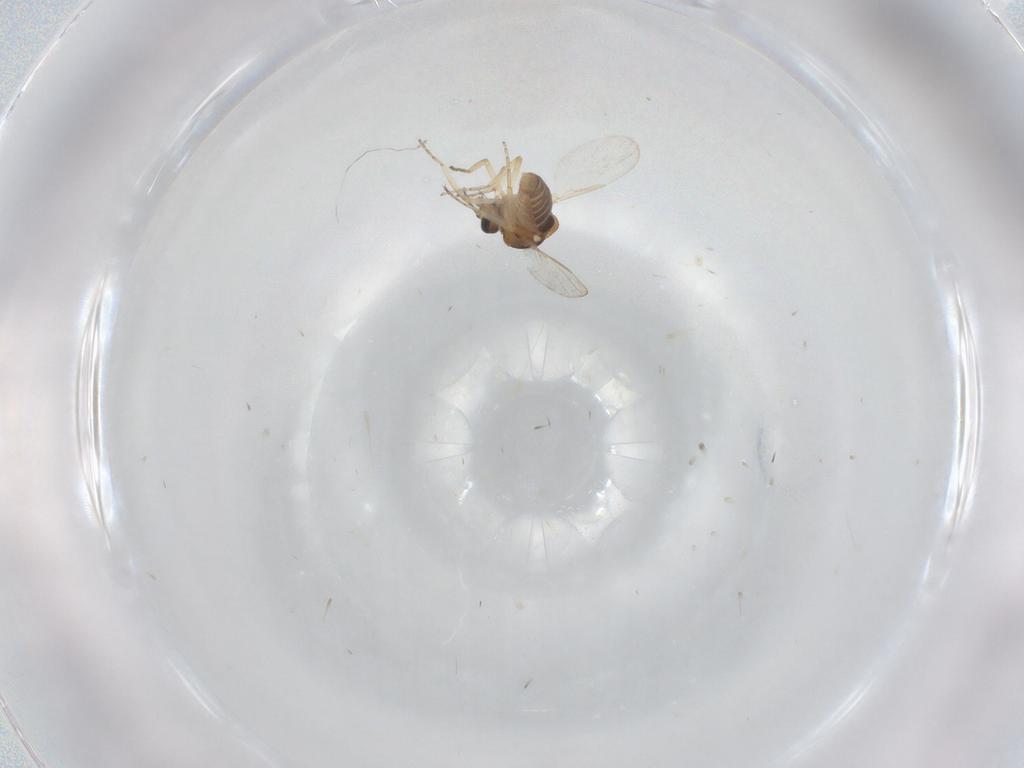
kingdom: Animalia
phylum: Arthropoda
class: Insecta
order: Diptera
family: Ceratopogonidae
